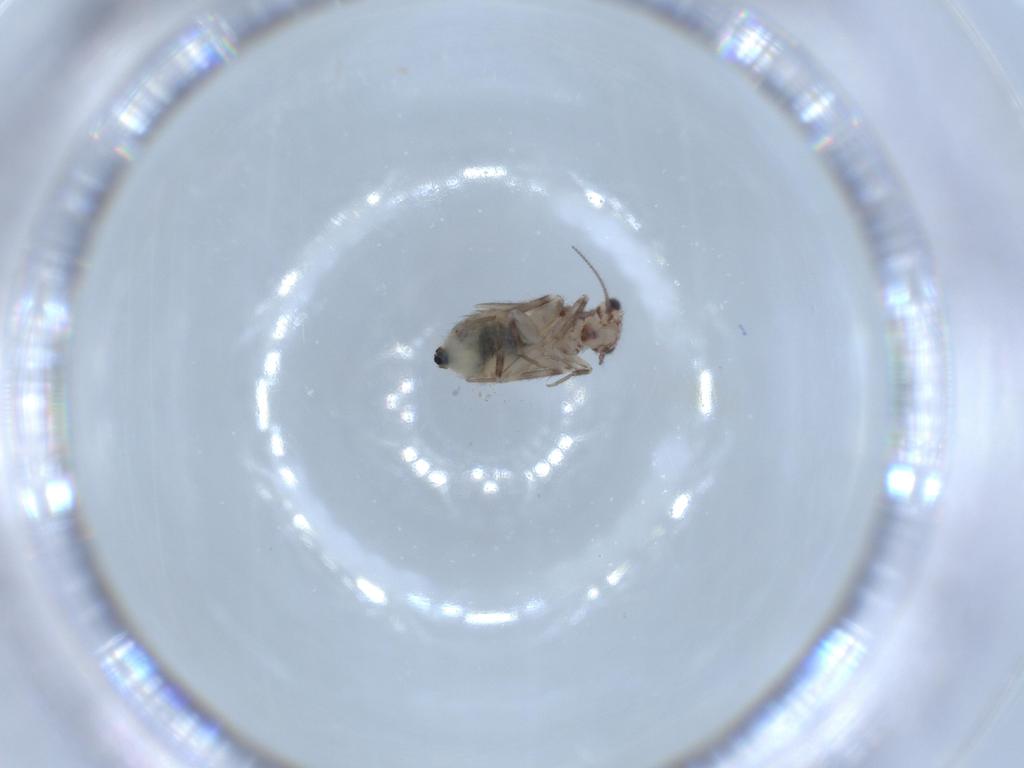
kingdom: Animalia
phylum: Arthropoda
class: Insecta
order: Psocodea
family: Lepidopsocidae
